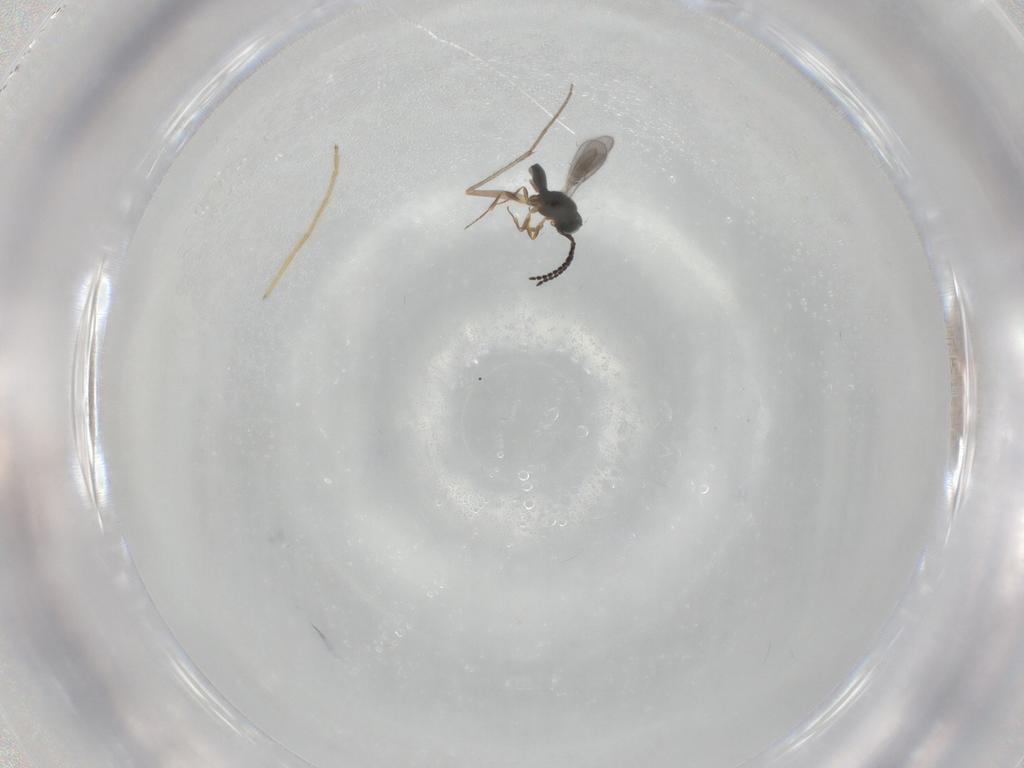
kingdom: Animalia
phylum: Arthropoda
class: Insecta
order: Hymenoptera
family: Scelionidae
